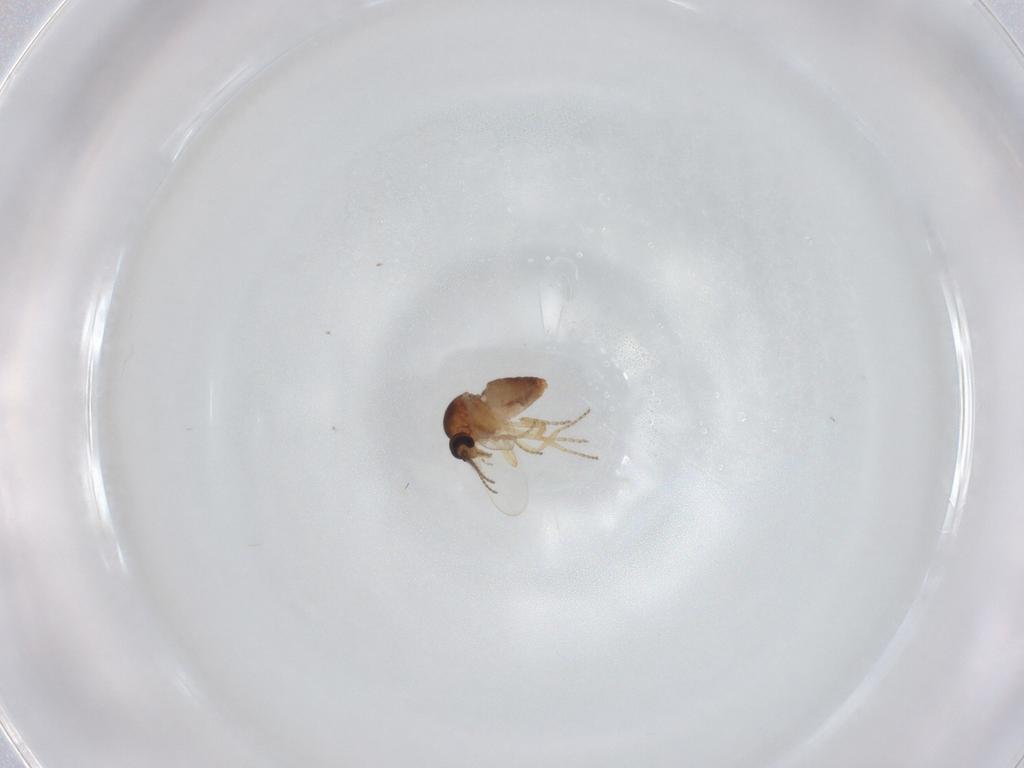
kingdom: Animalia
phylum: Arthropoda
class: Insecta
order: Diptera
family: Ceratopogonidae
